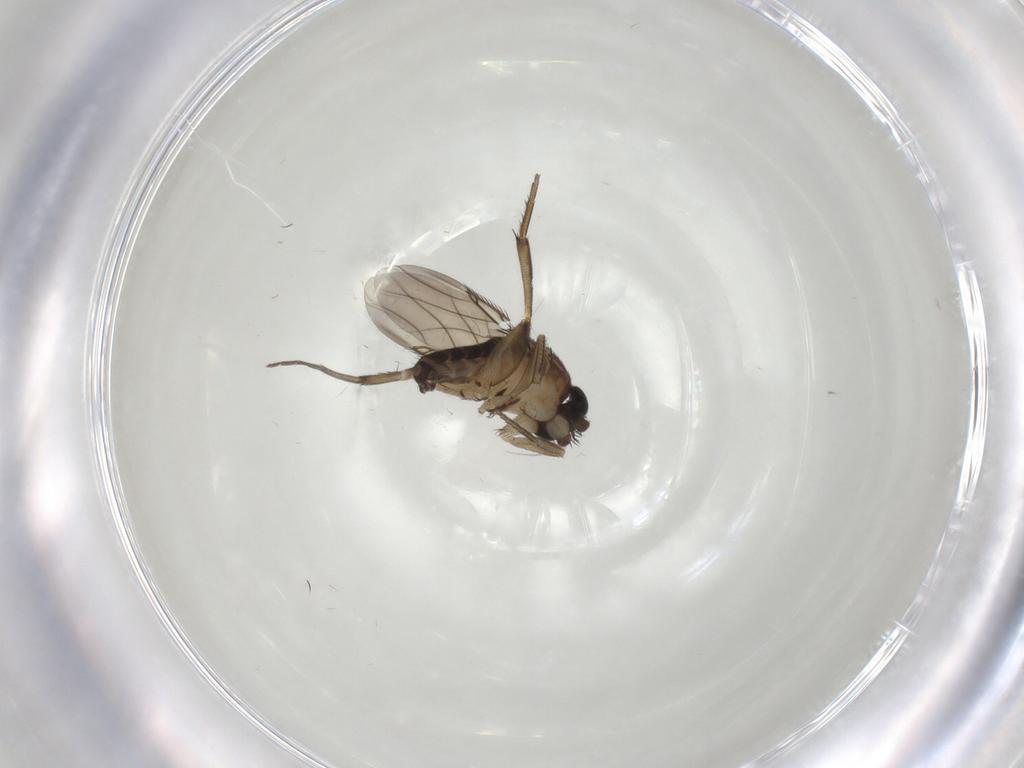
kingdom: Animalia
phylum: Arthropoda
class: Insecta
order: Diptera
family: Phoridae
